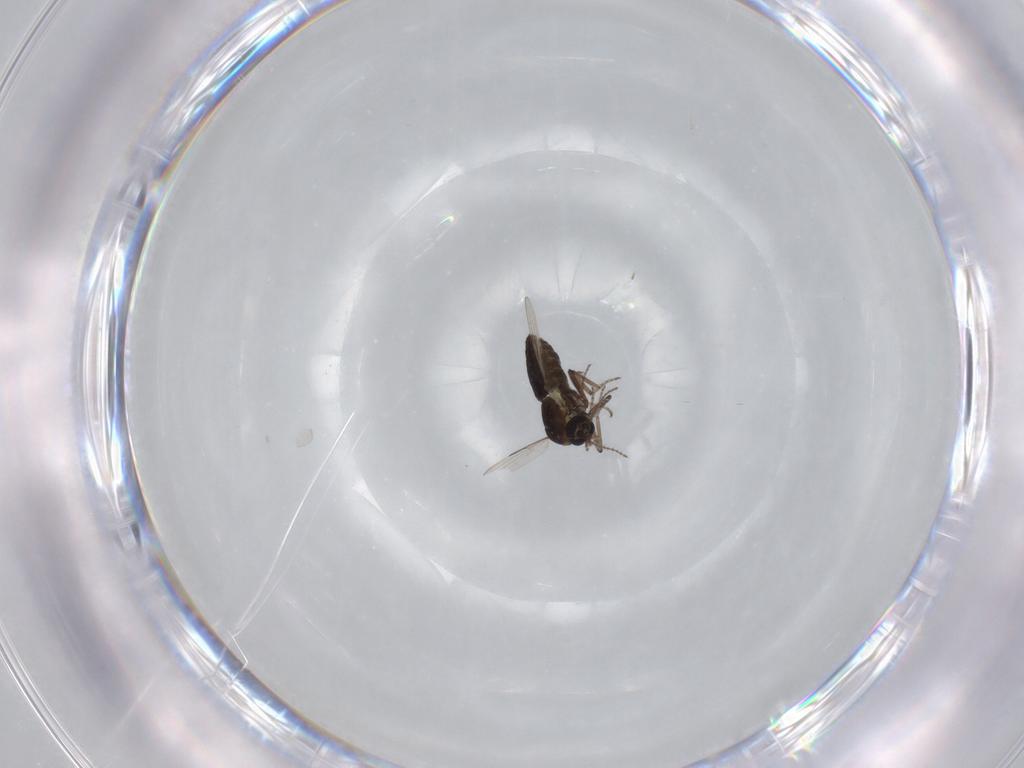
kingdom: Animalia
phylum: Arthropoda
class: Insecta
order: Diptera
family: Ceratopogonidae
